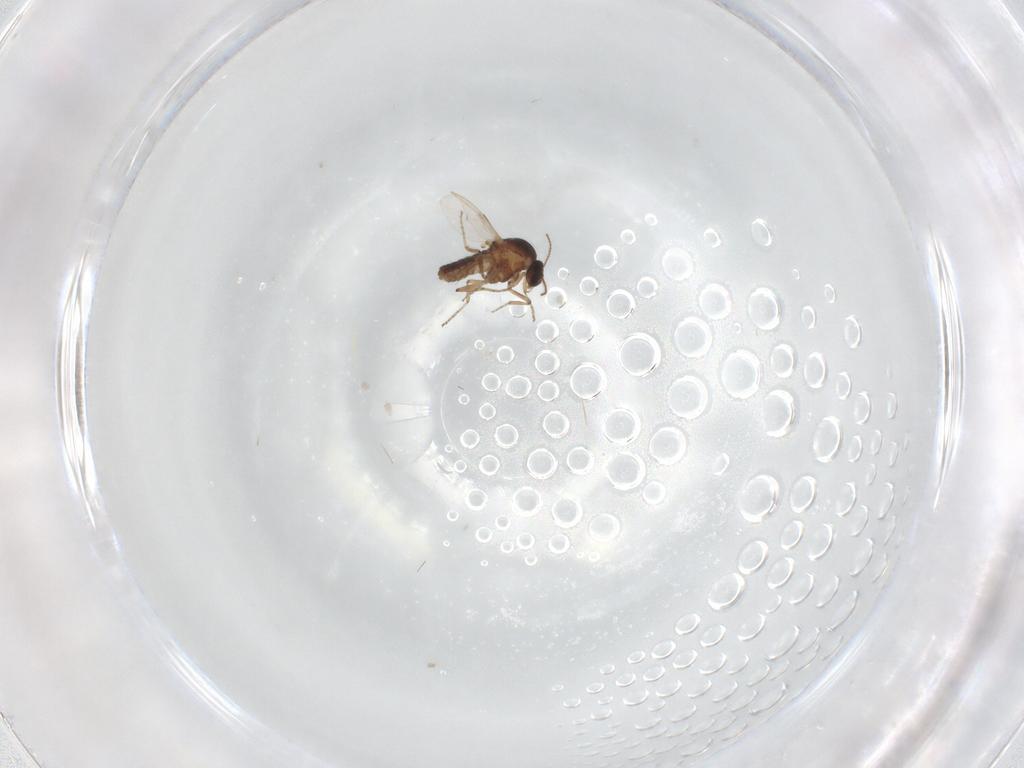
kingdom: Animalia
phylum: Arthropoda
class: Insecta
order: Diptera
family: Ceratopogonidae
